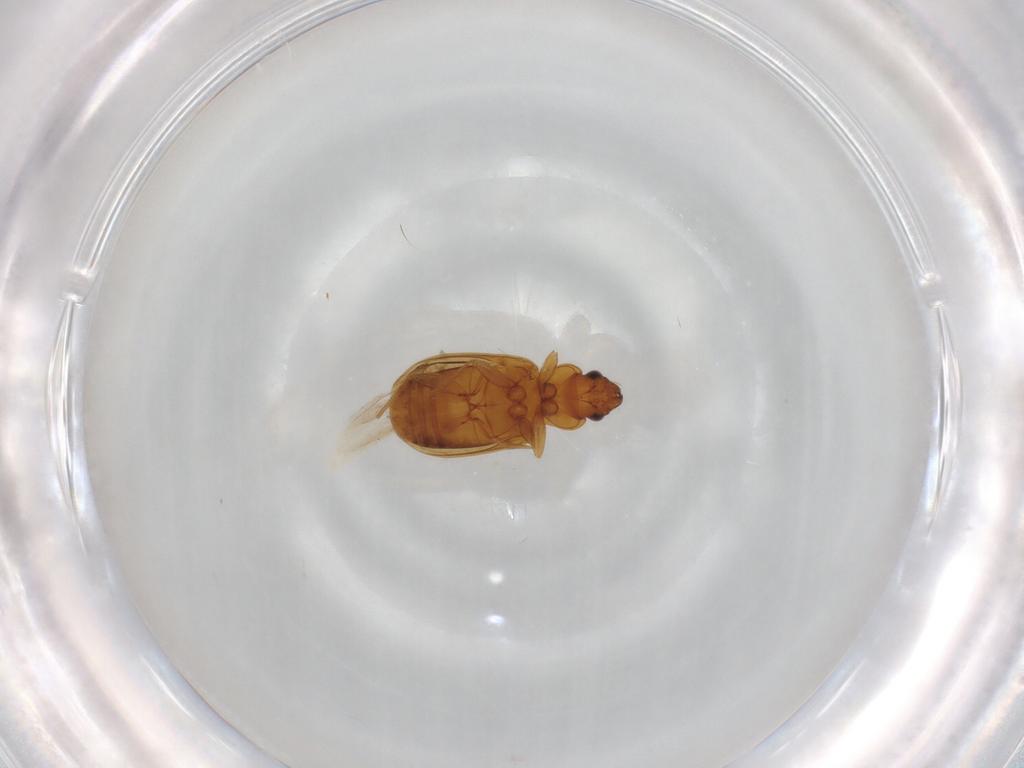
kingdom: Animalia
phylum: Arthropoda
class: Insecta
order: Coleoptera
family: Carabidae
